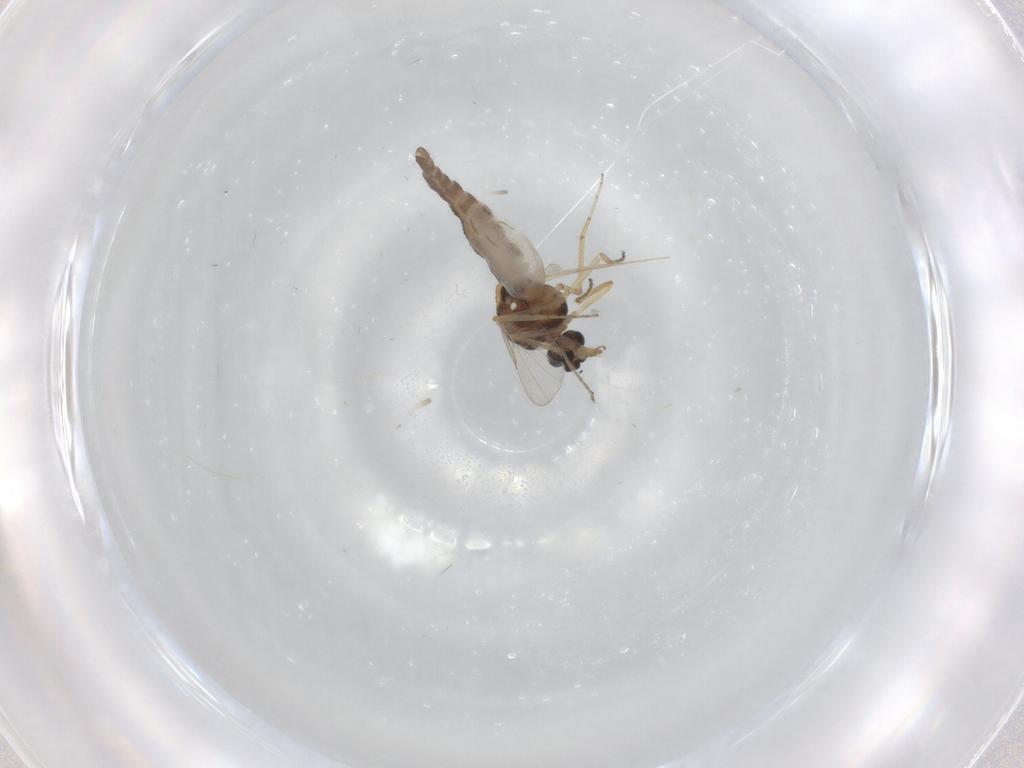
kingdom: Animalia
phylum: Arthropoda
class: Insecta
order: Diptera
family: Ceratopogonidae
